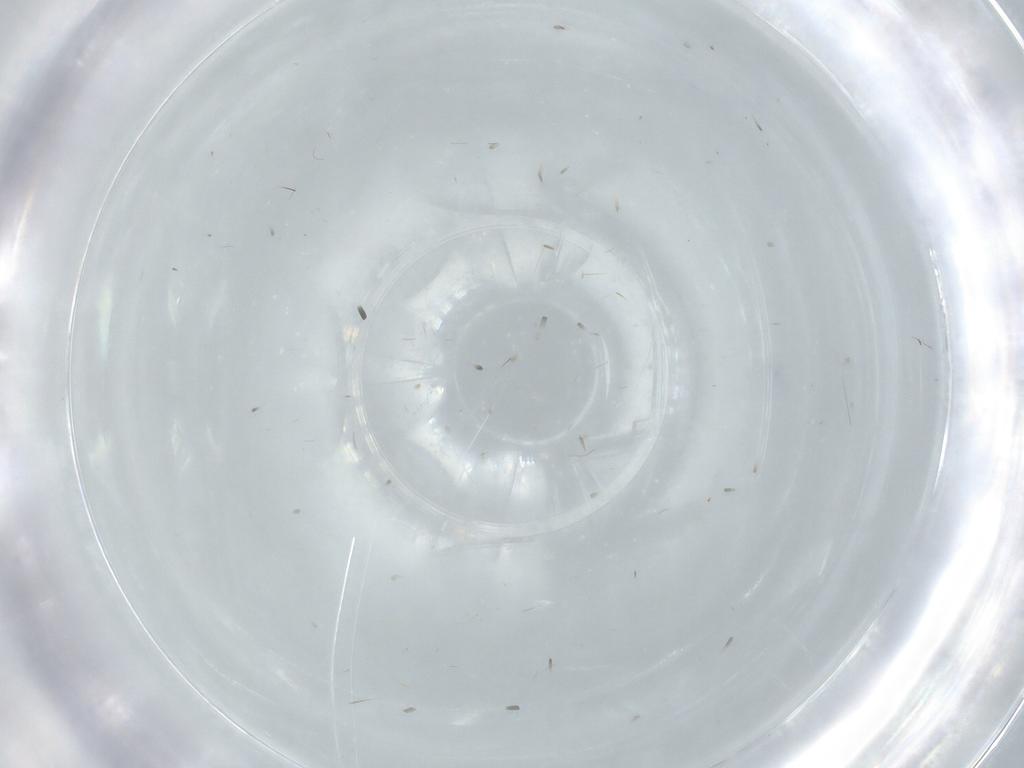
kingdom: Animalia
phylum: Arthropoda
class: Insecta
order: Diptera
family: Psychodidae
